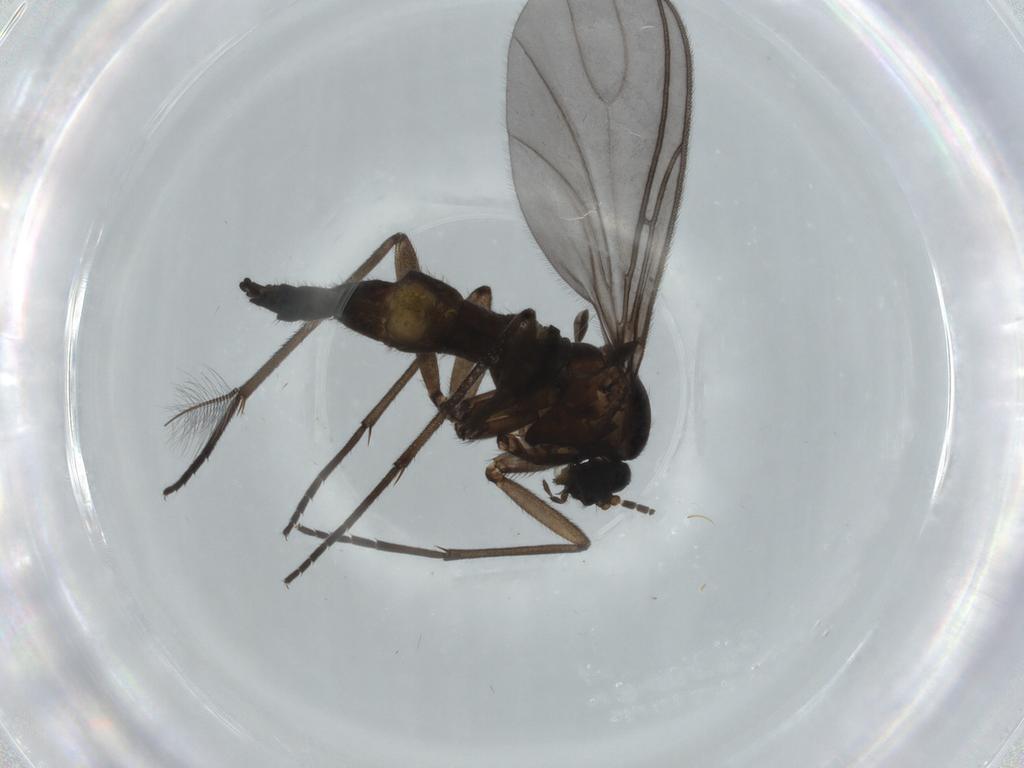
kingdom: Animalia
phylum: Arthropoda
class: Insecta
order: Diptera
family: Sciaridae
